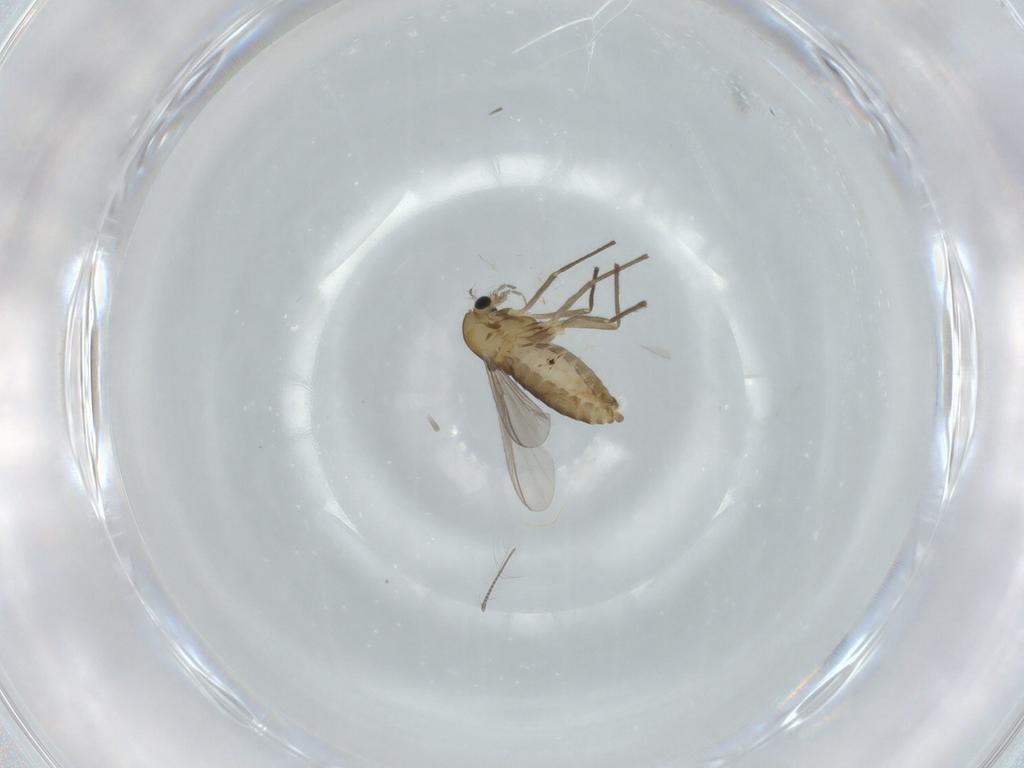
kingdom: Animalia
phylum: Arthropoda
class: Insecta
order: Diptera
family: Chironomidae
